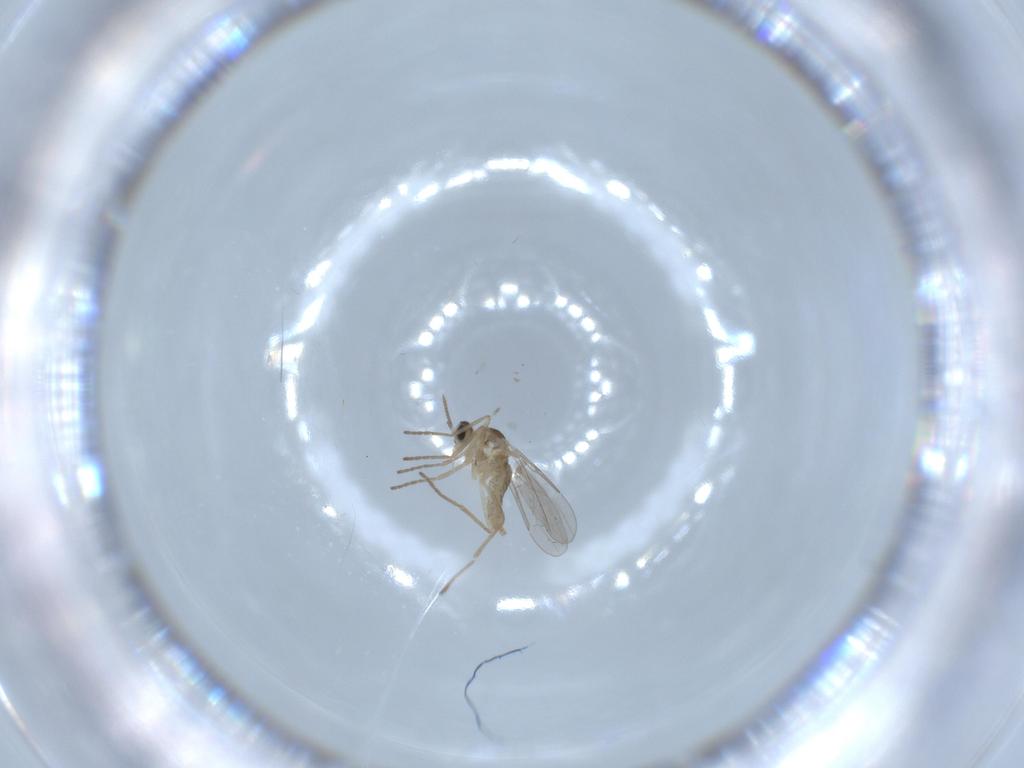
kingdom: Animalia
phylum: Arthropoda
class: Insecta
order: Diptera
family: Cecidomyiidae
